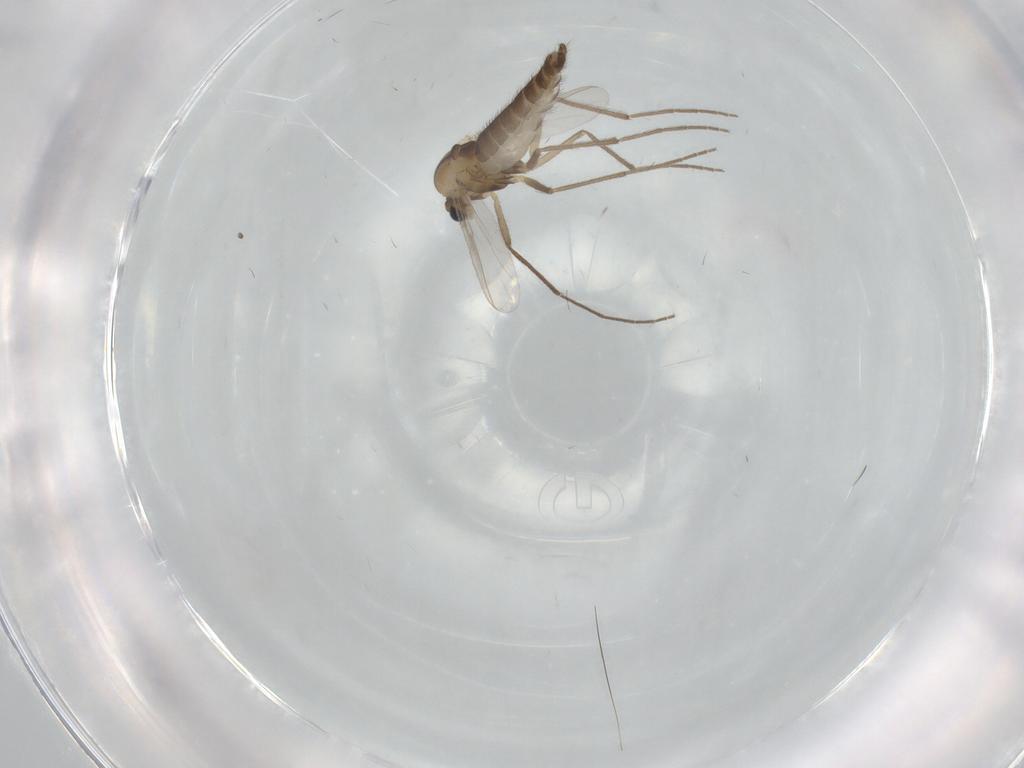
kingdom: Animalia
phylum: Arthropoda
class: Insecta
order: Diptera
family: Chironomidae
